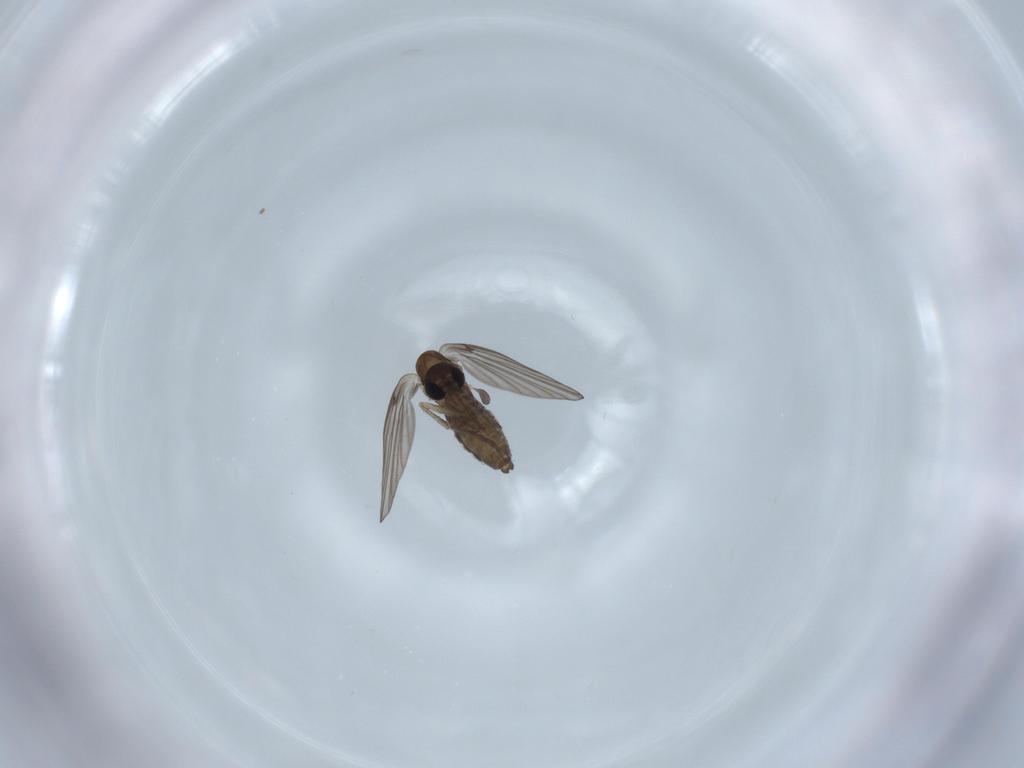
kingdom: Animalia
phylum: Arthropoda
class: Insecta
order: Diptera
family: Psychodidae
